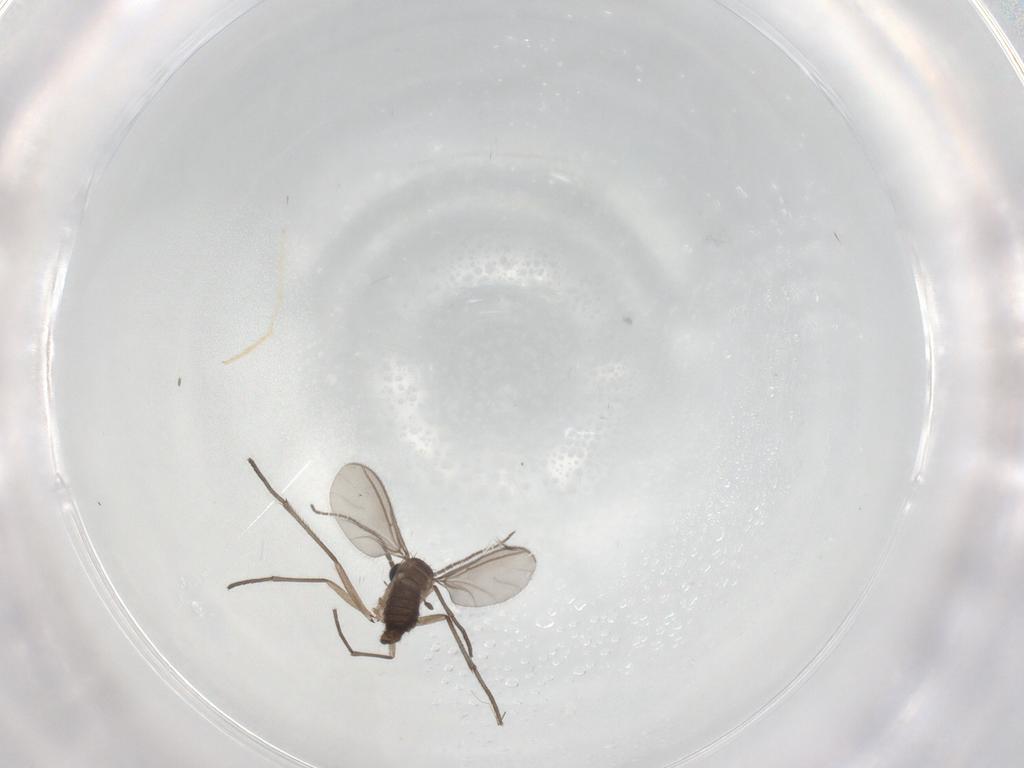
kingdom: Animalia
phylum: Arthropoda
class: Insecta
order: Diptera
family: Sciaridae
